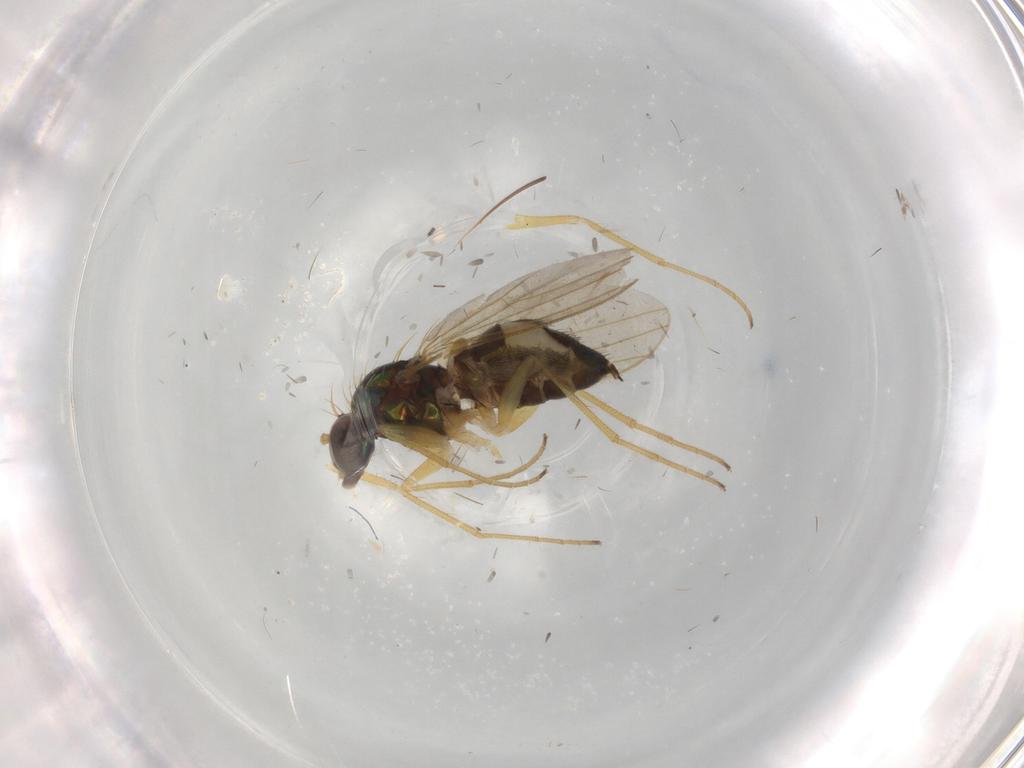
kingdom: Animalia
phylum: Arthropoda
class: Insecta
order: Diptera
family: Dolichopodidae
